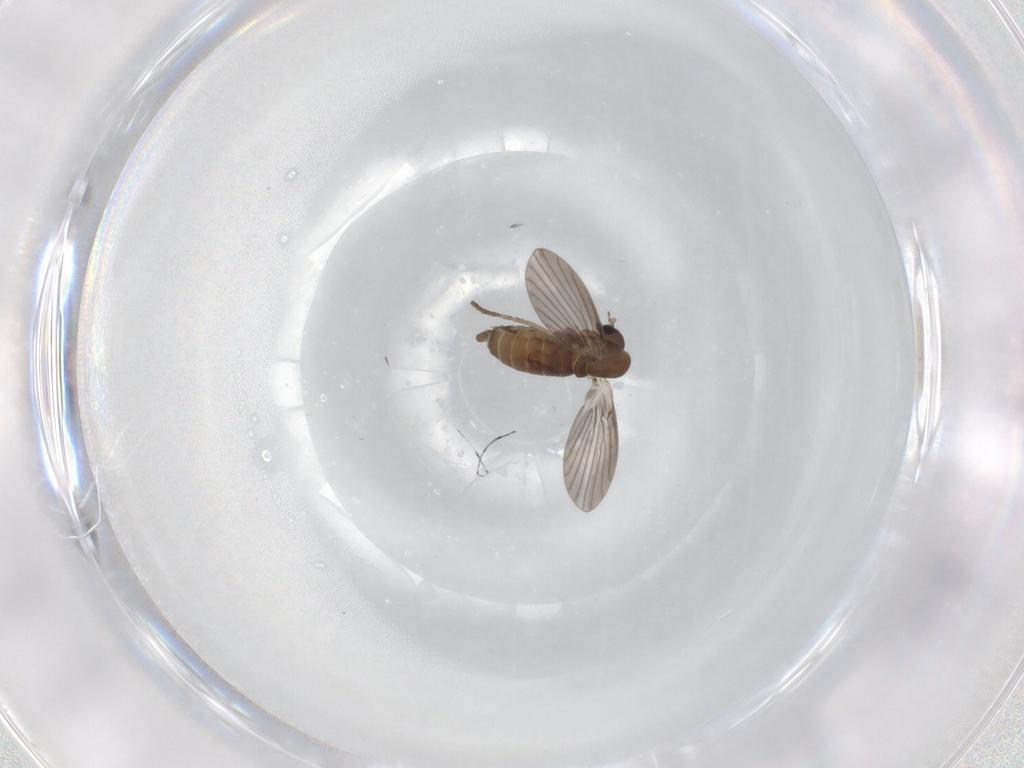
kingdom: Animalia
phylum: Arthropoda
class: Insecta
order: Diptera
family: Psychodidae
